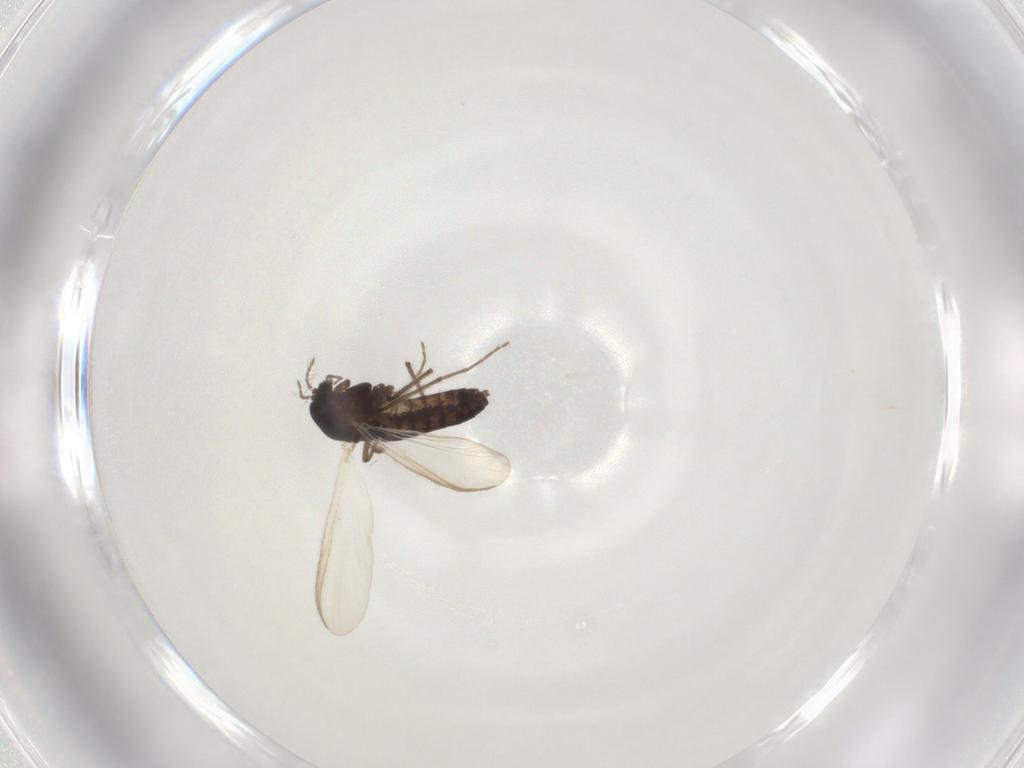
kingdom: Animalia
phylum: Arthropoda
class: Insecta
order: Diptera
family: Sciaridae
